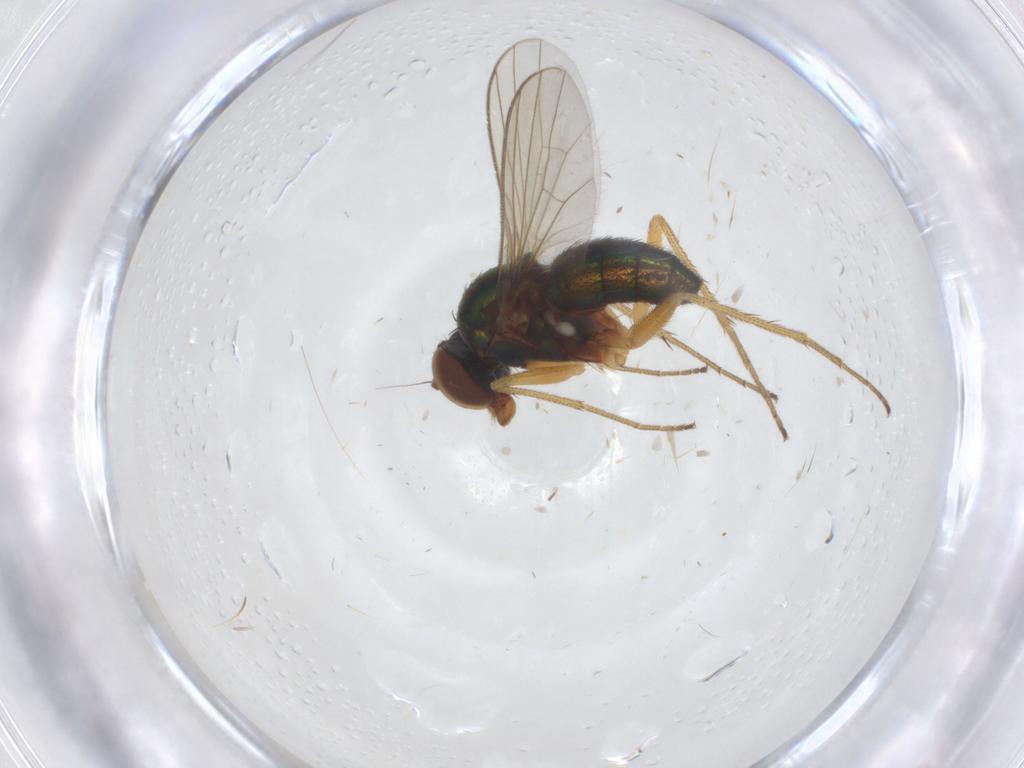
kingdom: Animalia
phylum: Arthropoda
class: Insecta
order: Diptera
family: Dolichopodidae
